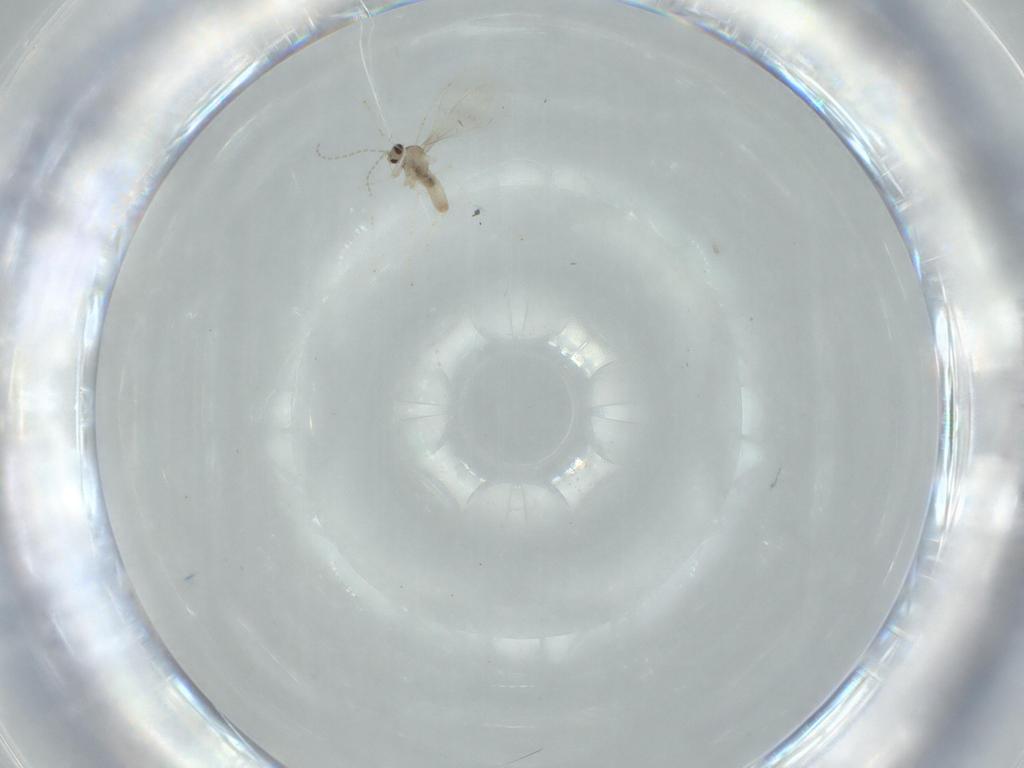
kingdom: Animalia
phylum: Arthropoda
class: Insecta
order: Diptera
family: Cecidomyiidae
